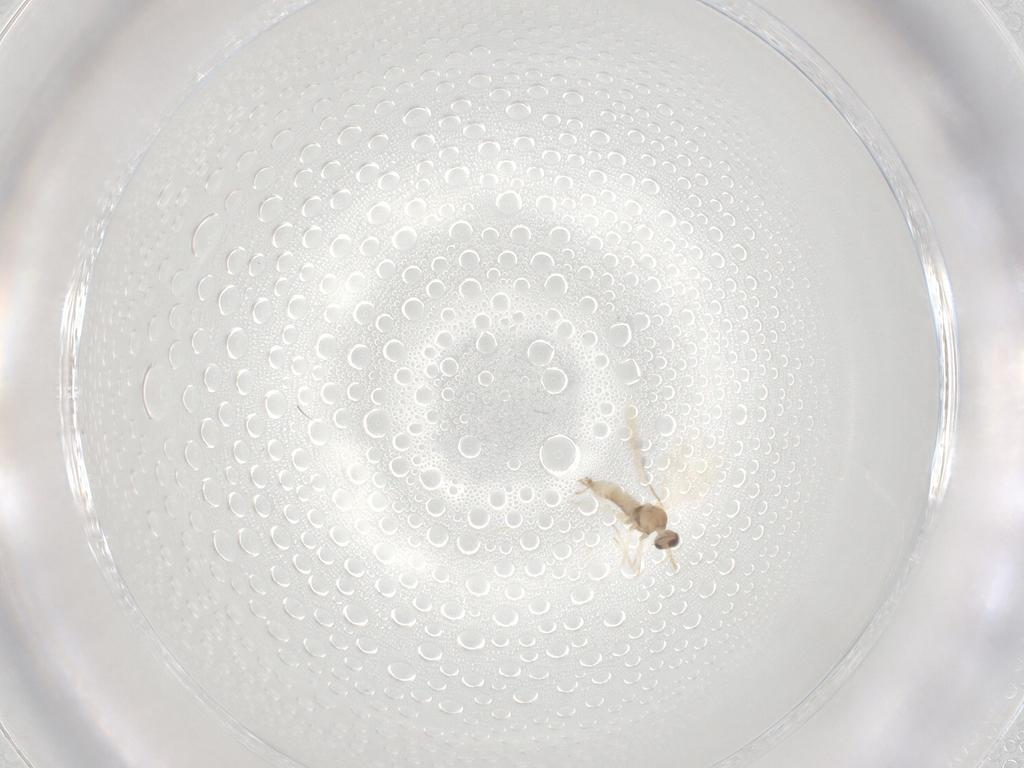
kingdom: Animalia
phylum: Arthropoda
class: Insecta
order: Diptera
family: Cecidomyiidae
